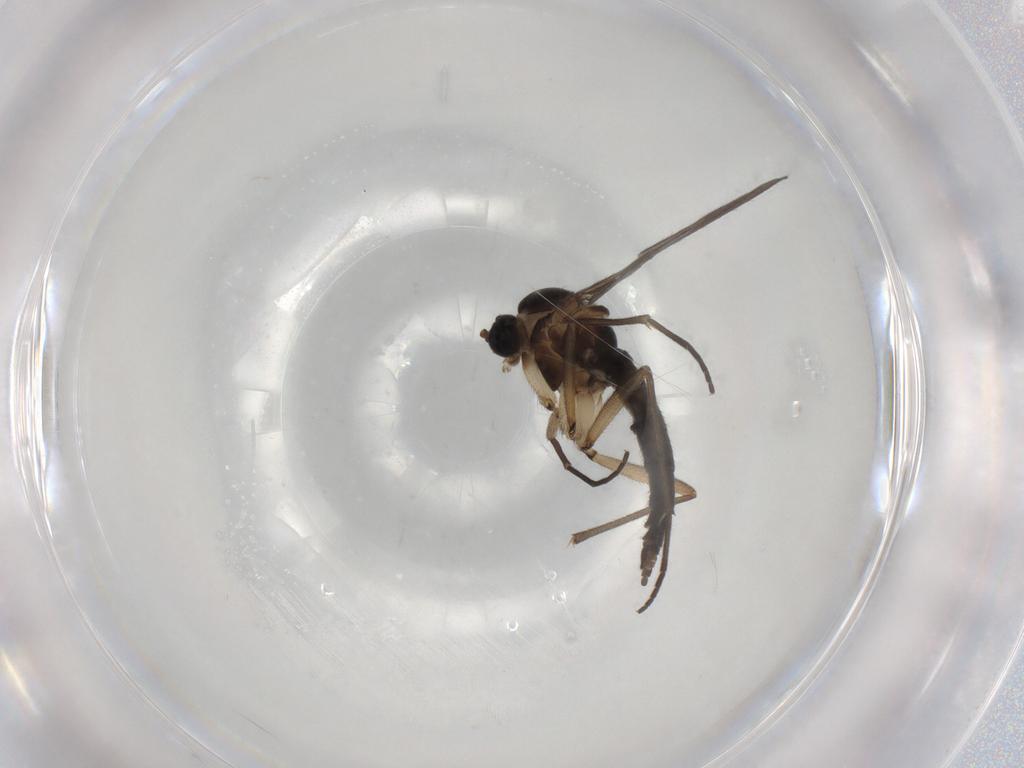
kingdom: Animalia
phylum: Arthropoda
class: Insecta
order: Diptera
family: Sciaridae
